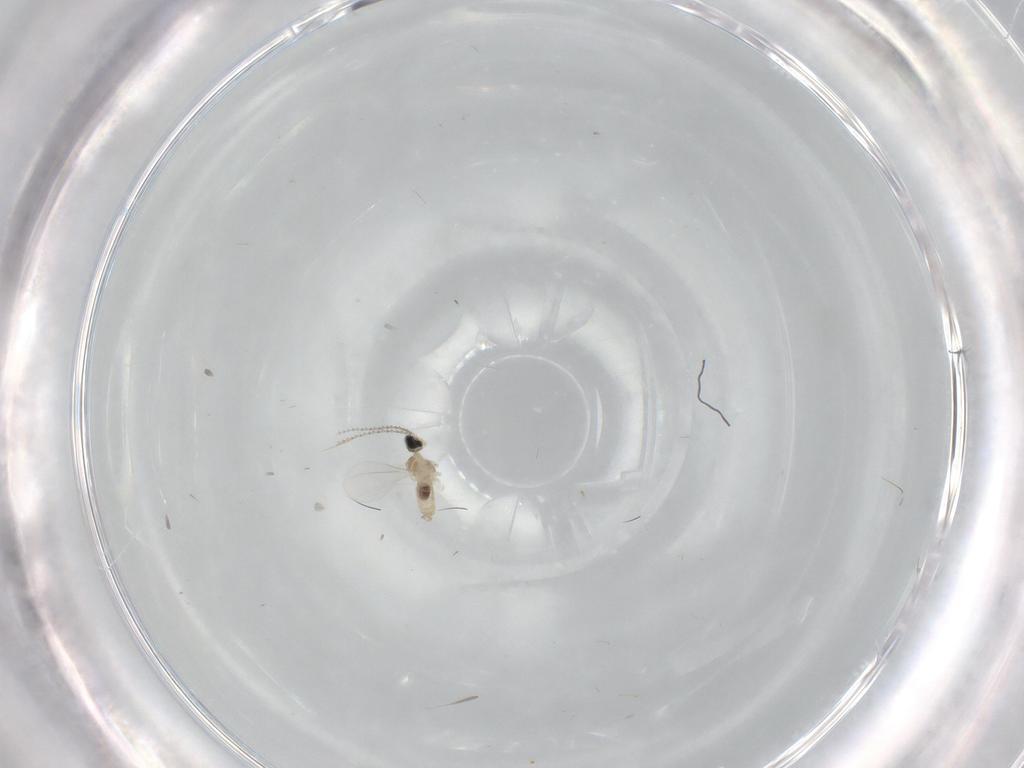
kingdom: Animalia
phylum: Arthropoda
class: Insecta
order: Diptera
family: Cecidomyiidae
